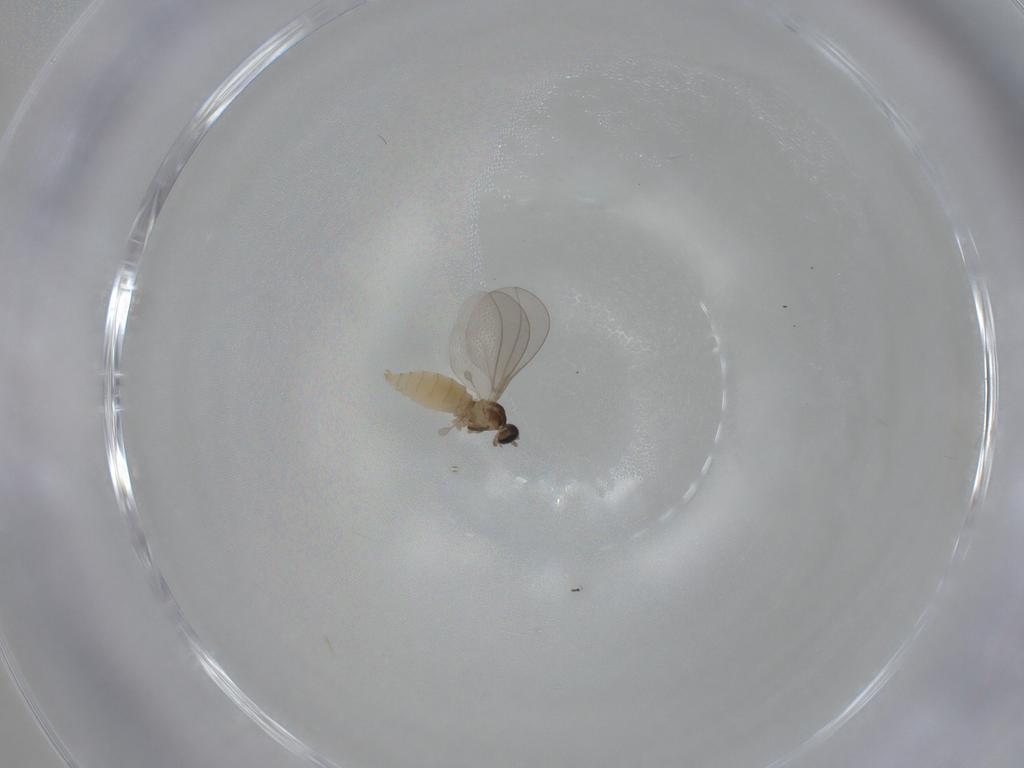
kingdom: Animalia
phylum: Arthropoda
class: Insecta
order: Diptera
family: Cecidomyiidae
